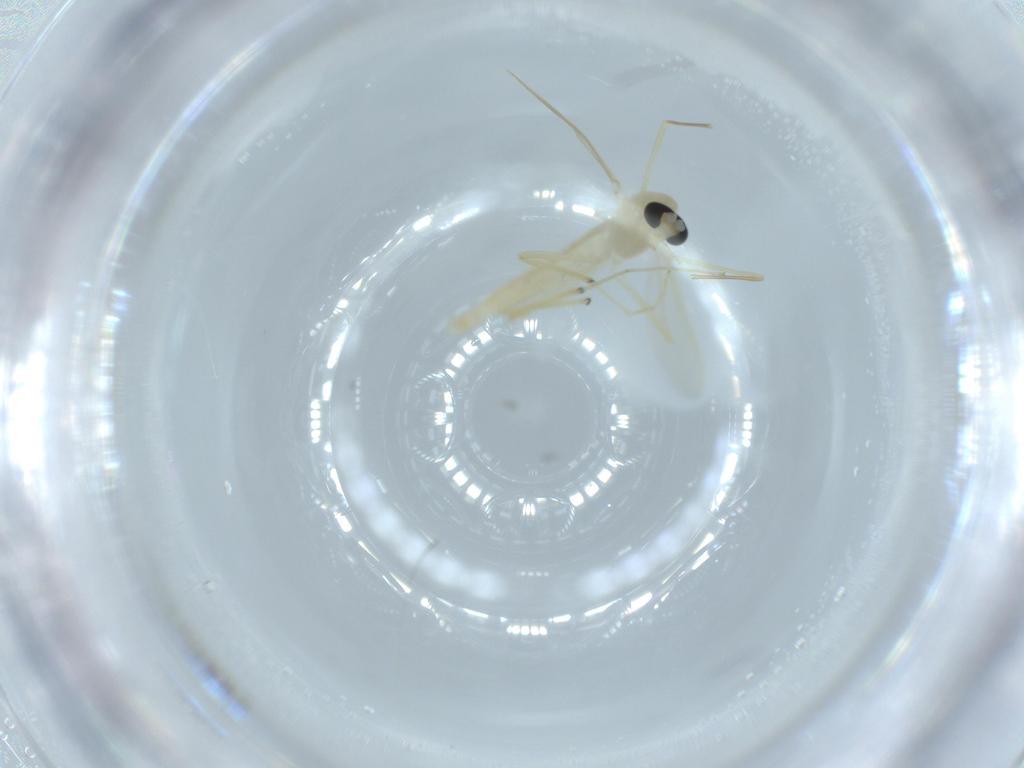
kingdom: Animalia
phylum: Arthropoda
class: Insecta
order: Diptera
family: Chironomidae
